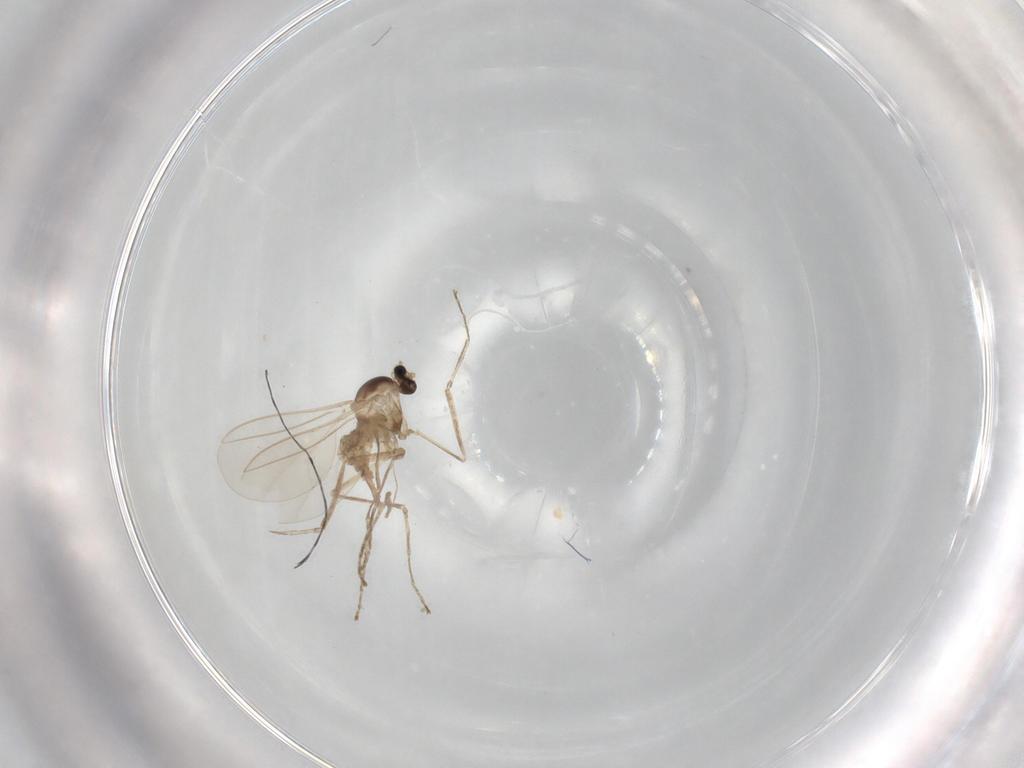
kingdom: Animalia
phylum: Arthropoda
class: Insecta
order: Diptera
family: Cecidomyiidae
